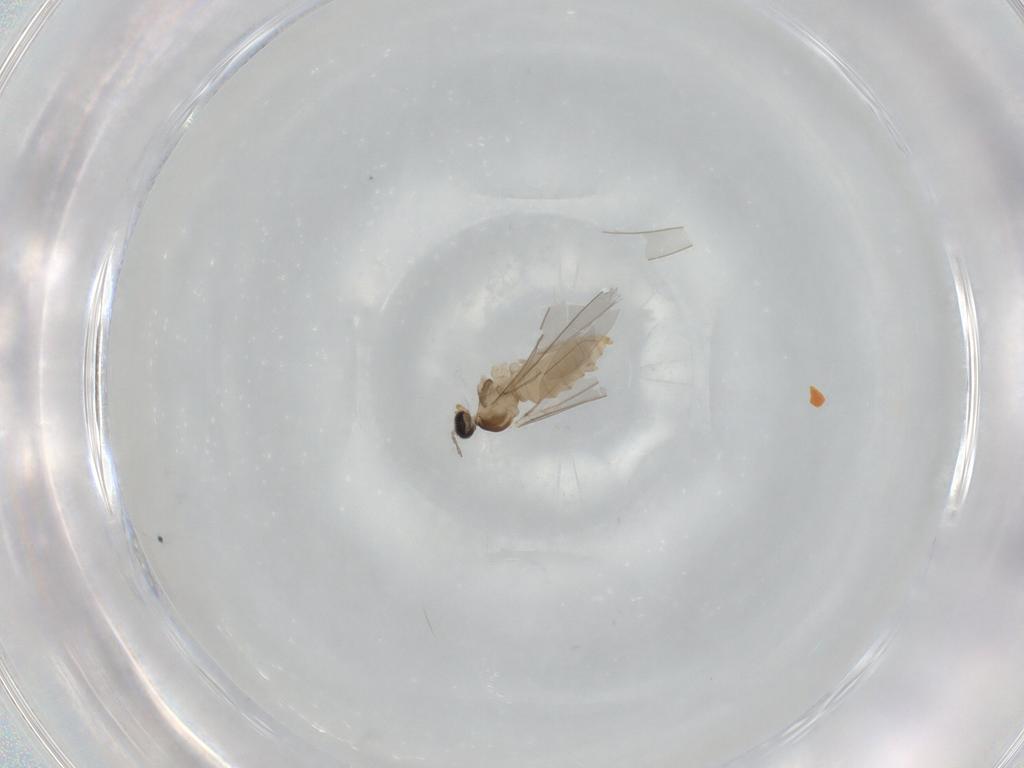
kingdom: Animalia
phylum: Arthropoda
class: Insecta
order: Diptera
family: Cecidomyiidae
